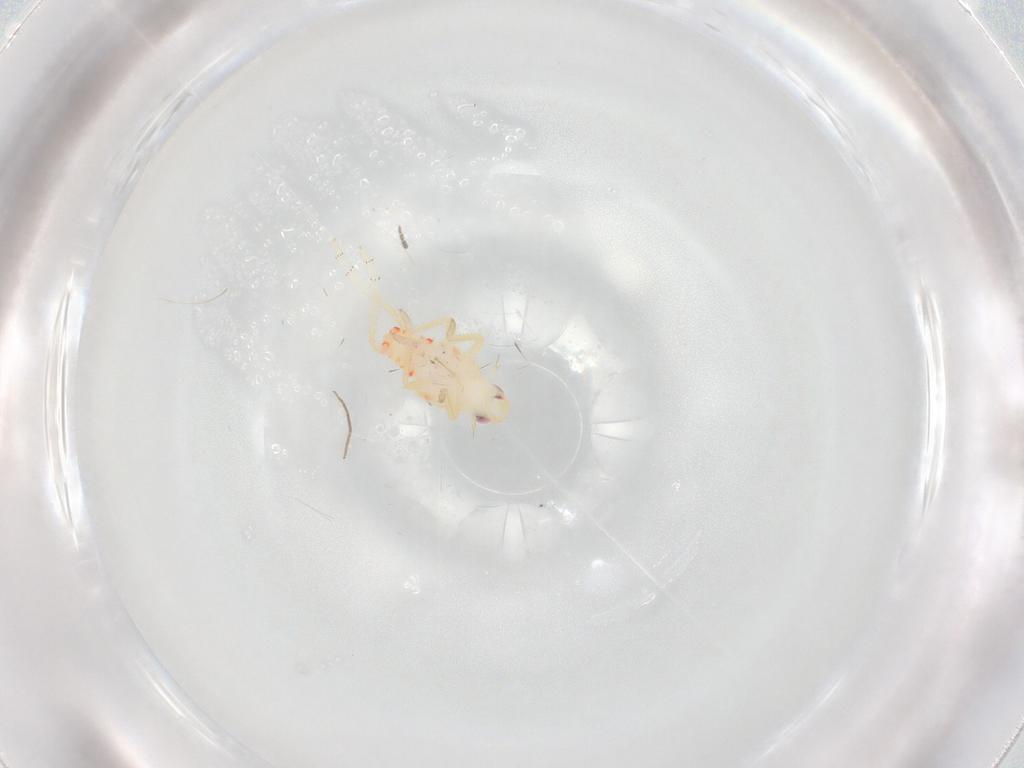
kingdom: Animalia
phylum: Arthropoda
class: Insecta
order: Hemiptera
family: Tropiduchidae
